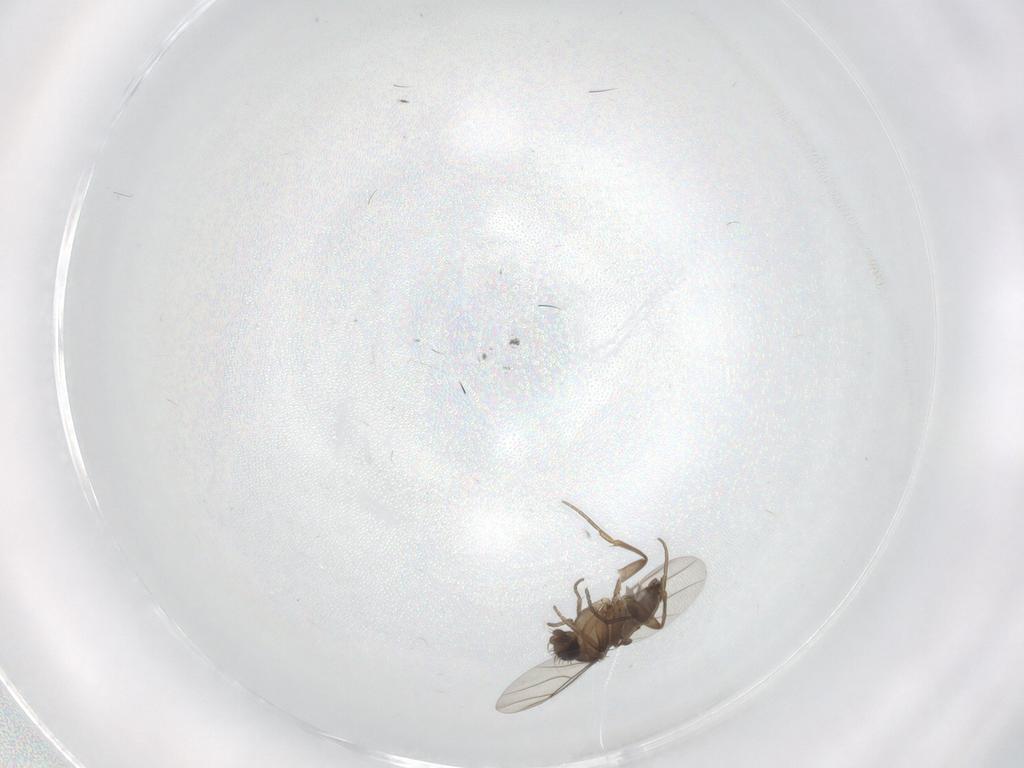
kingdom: Animalia
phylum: Arthropoda
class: Insecta
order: Diptera
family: Sciaridae
